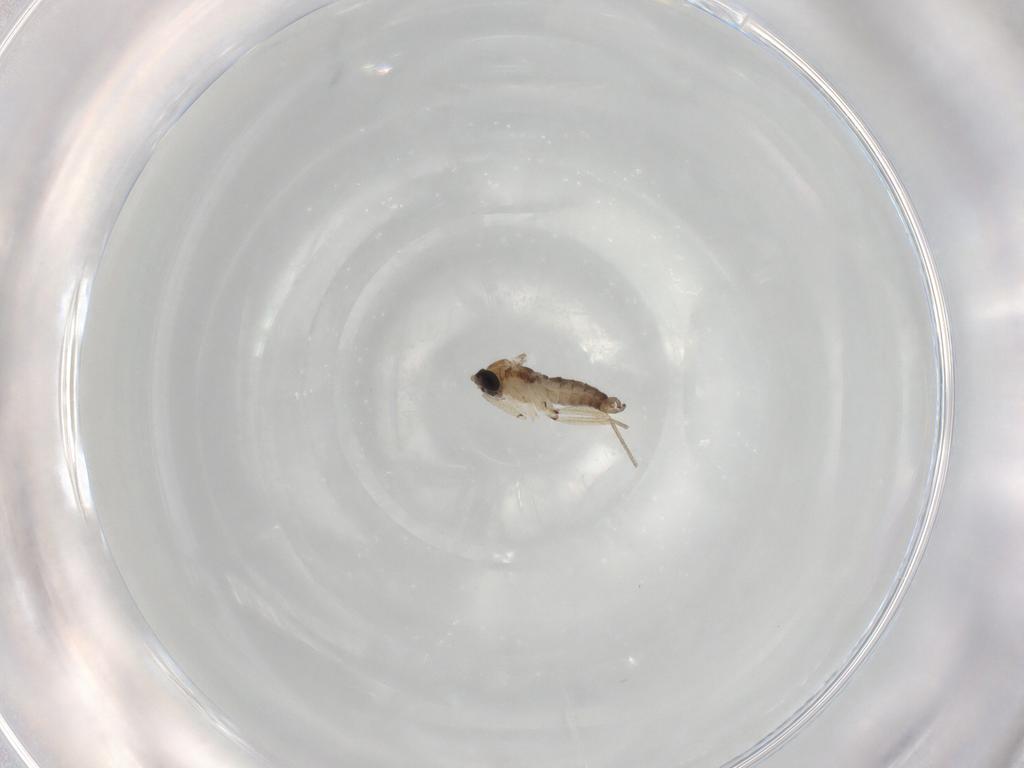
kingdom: Animalia
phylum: Arthropoda
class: Insecta
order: Diptera
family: Sciaridae
